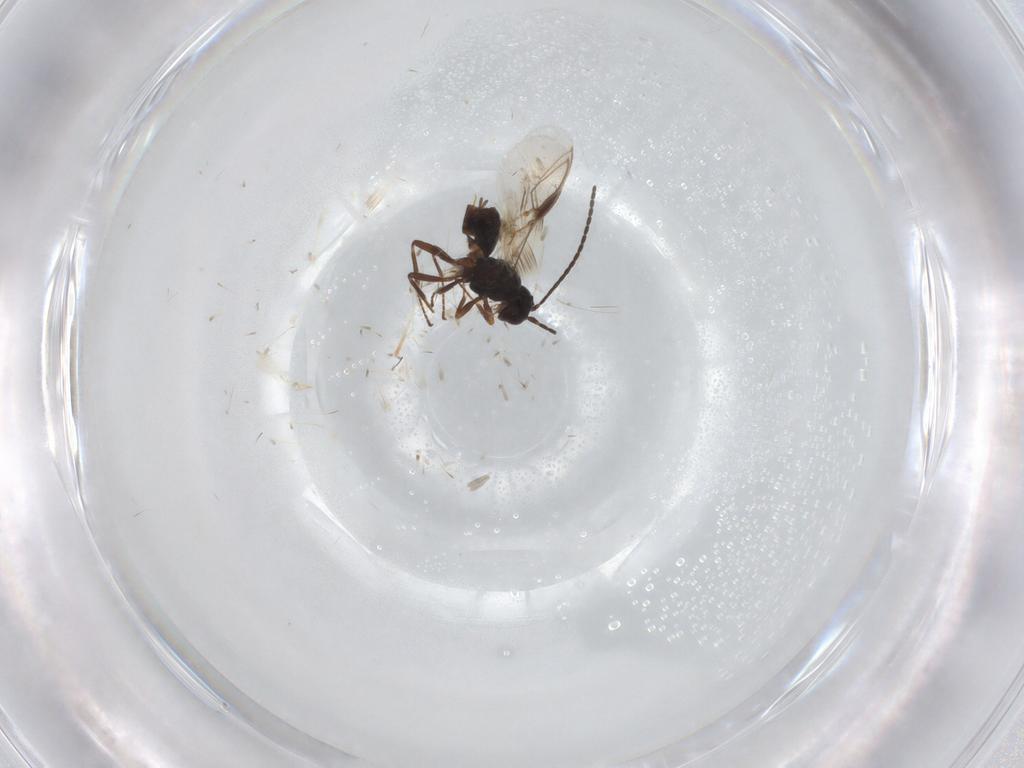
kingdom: Animalia
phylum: Arthropoda
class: Insecta
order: Hymenoptera
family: Braconidae
